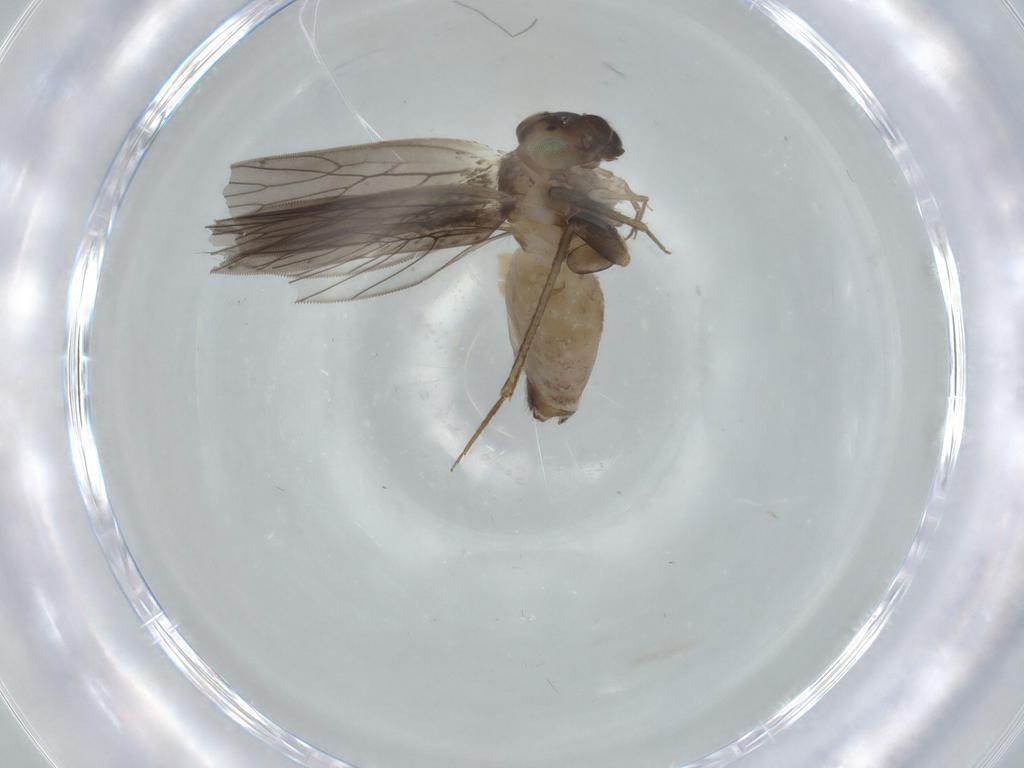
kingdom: Animalia
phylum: Arthropoda
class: Insecta
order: Psocodea
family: Lepidopsocidae
